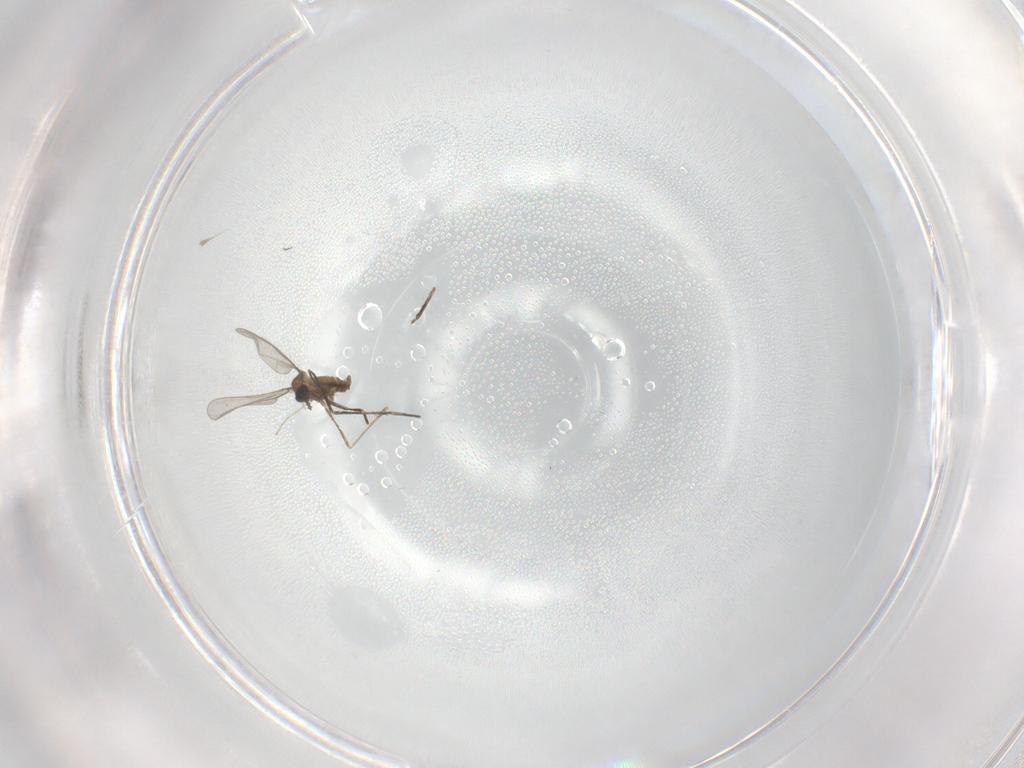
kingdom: Animalia
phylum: Arthropoda
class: Insecta
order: Diptera
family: Cecidomyiidae
